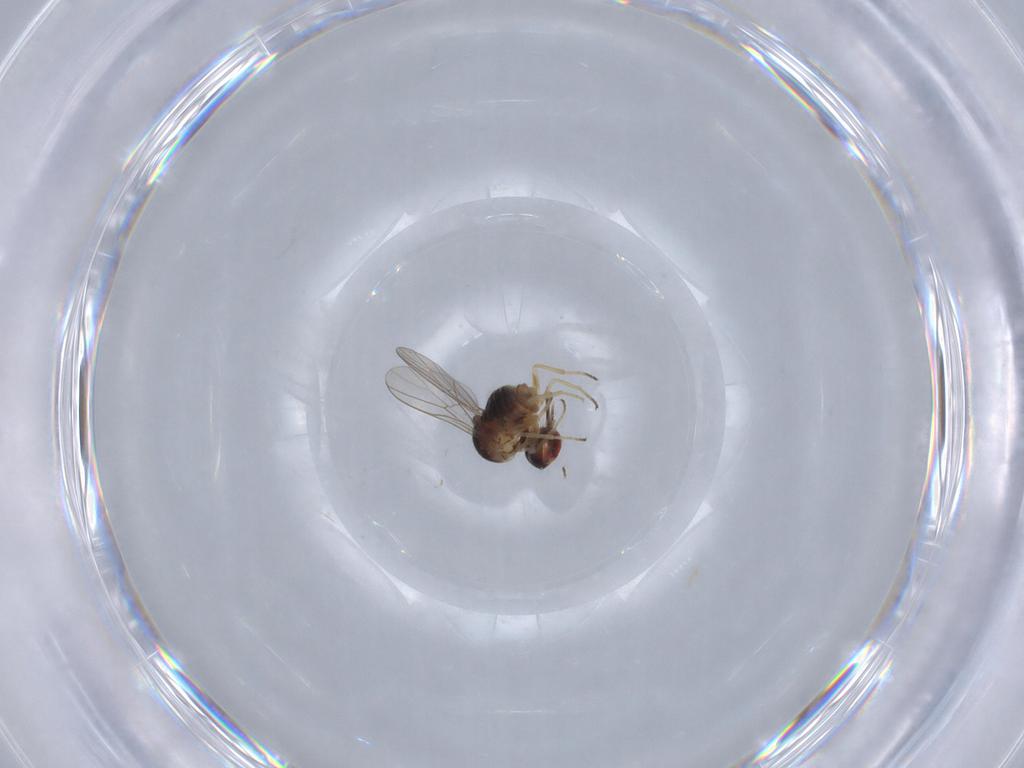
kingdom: Animalia
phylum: Arthropoda
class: Insecta
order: Diptera
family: Mythicomyiidae
